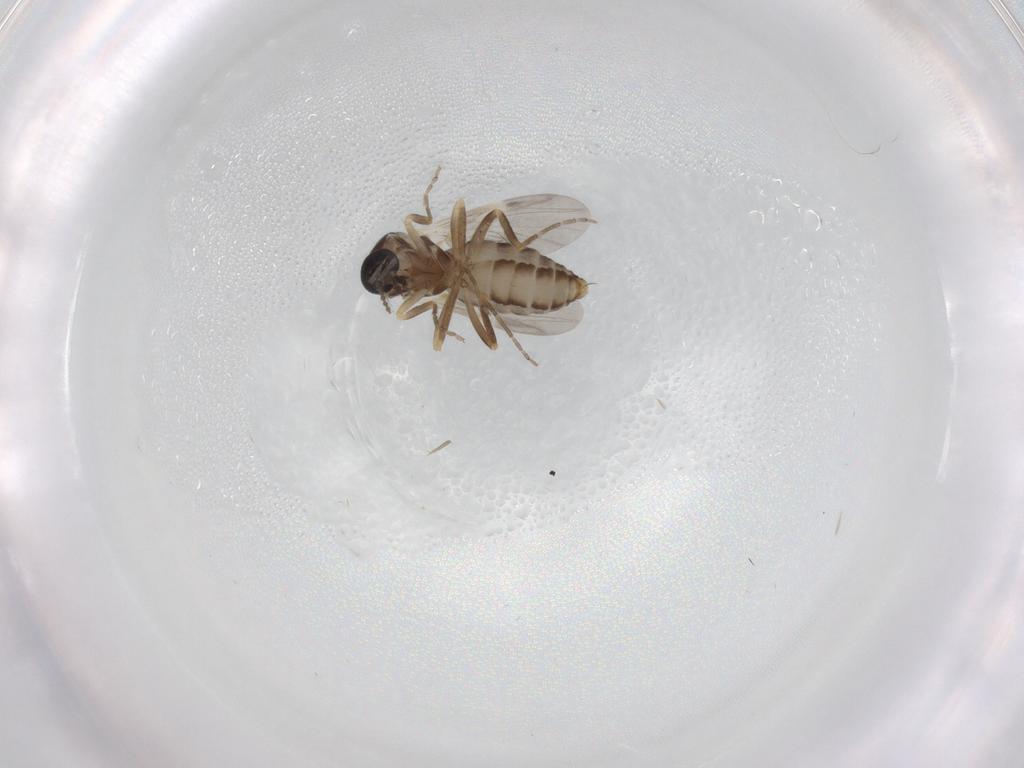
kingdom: Animalia
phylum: Arthropoda
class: Insecta
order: Diptera
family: Ceratopogonidae
